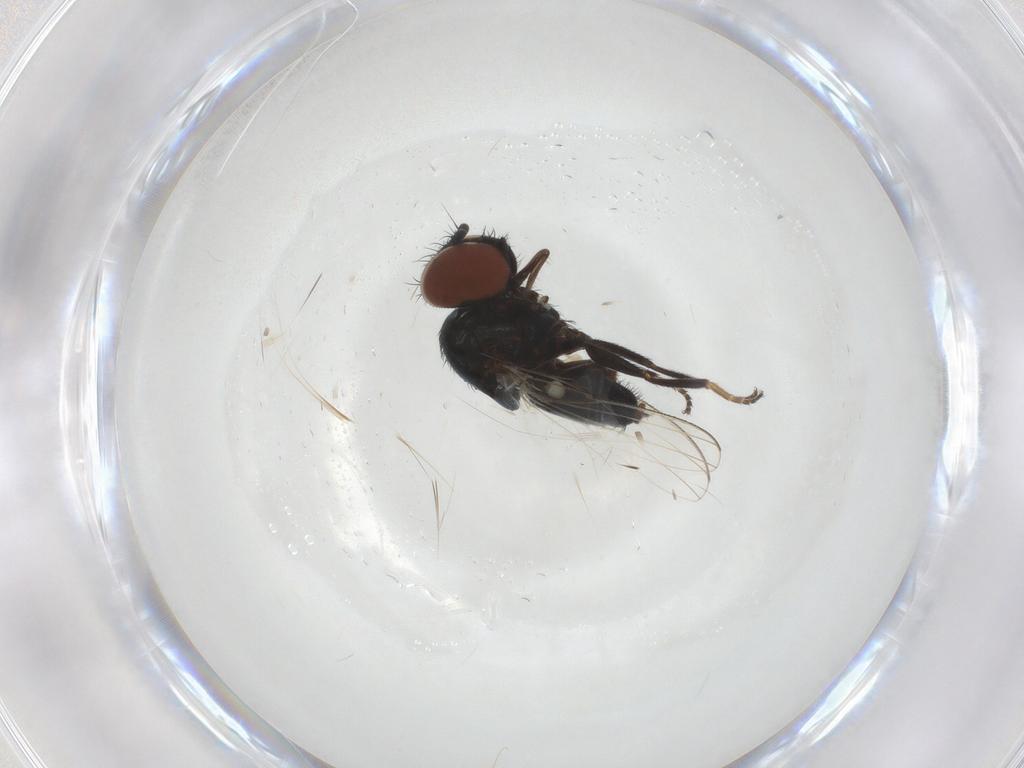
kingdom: Animalia
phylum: Arthropoda
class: Insecta
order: Diptera
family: Milichiidae
